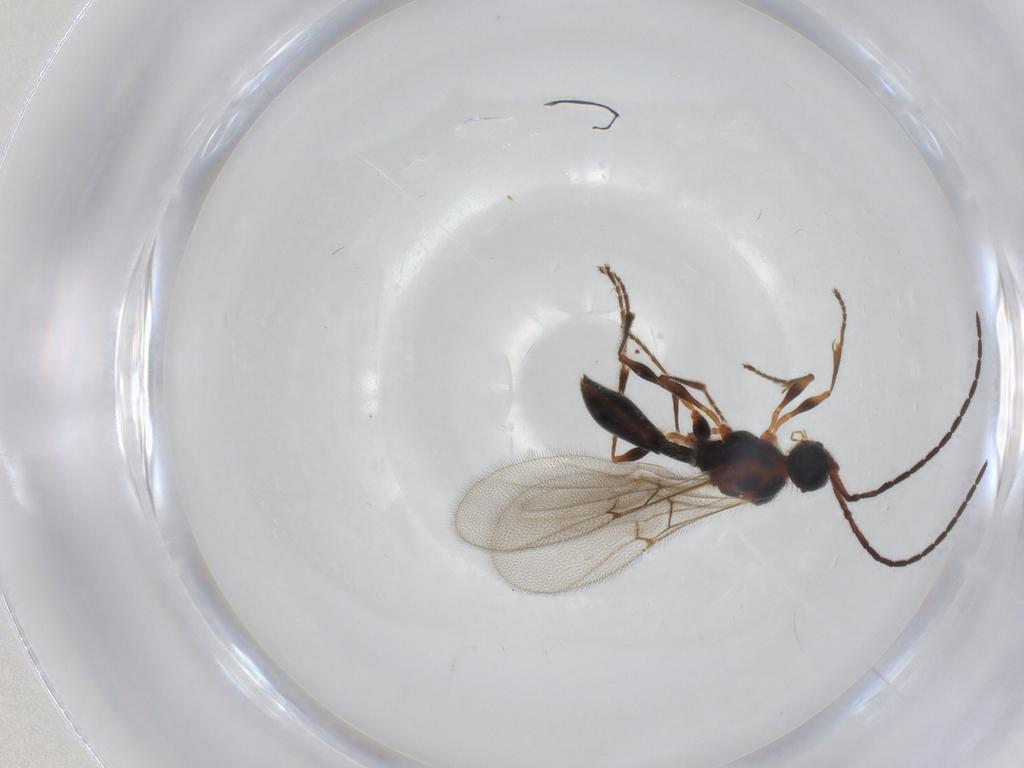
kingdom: Animalia
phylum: Arthropoda
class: Insecta
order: Hymenoptera
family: Diapriidae
